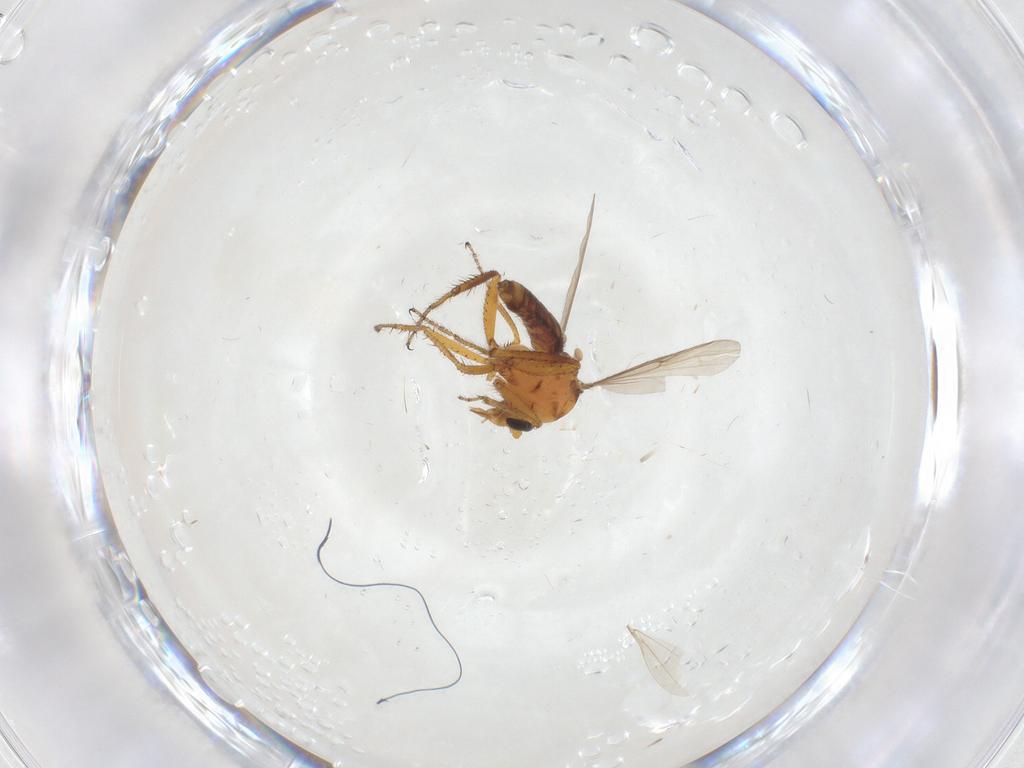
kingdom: Animalia
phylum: Arthropoda
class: Insecta
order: Diptera
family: Cecidomyiidae
